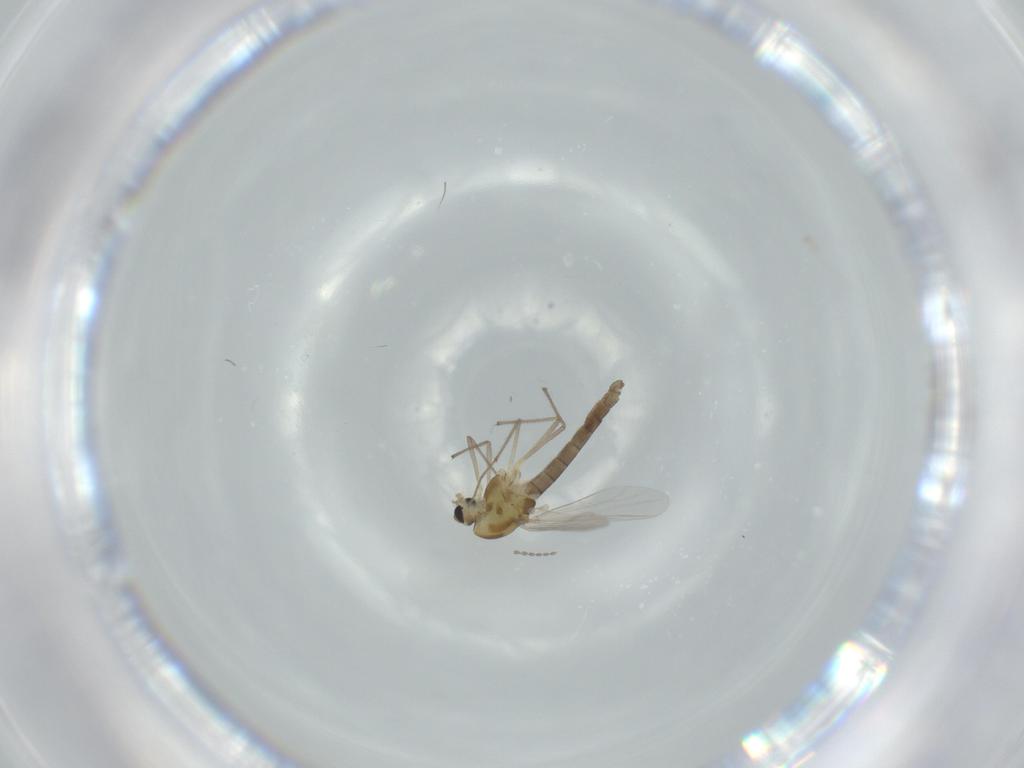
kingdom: Animalia
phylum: Arthropoda
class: Insecta
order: Diptera
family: Chironomidae
